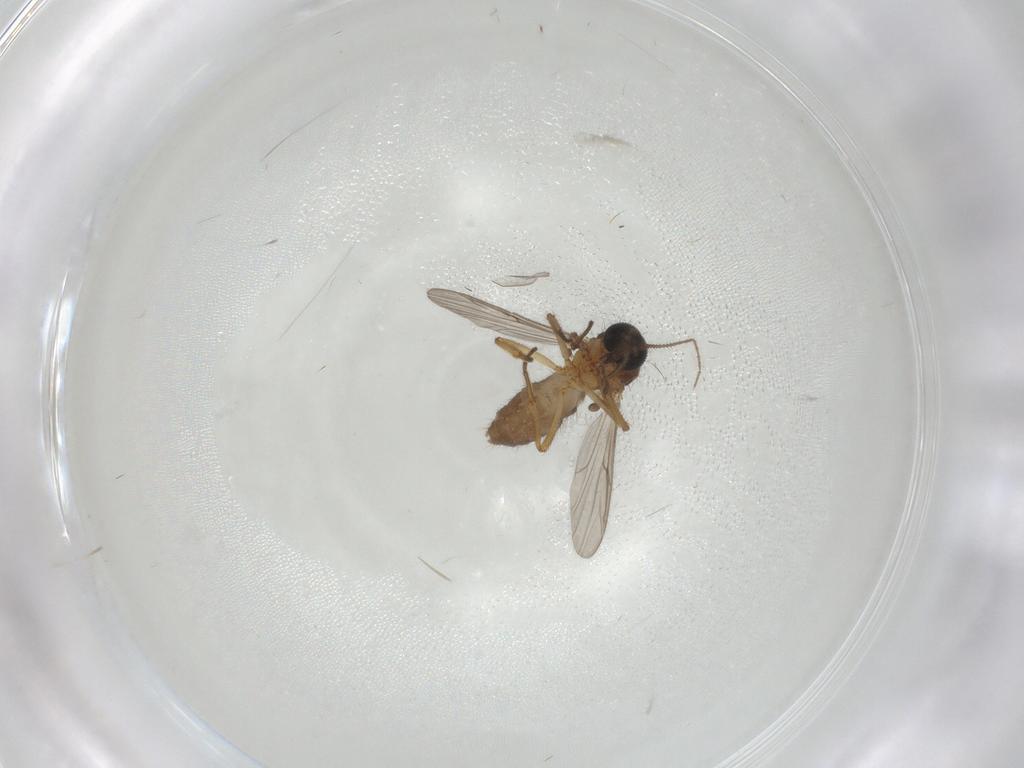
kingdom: Animalia
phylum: Arthropoda
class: Insecta
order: Diptera
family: Ceratopogonidae
